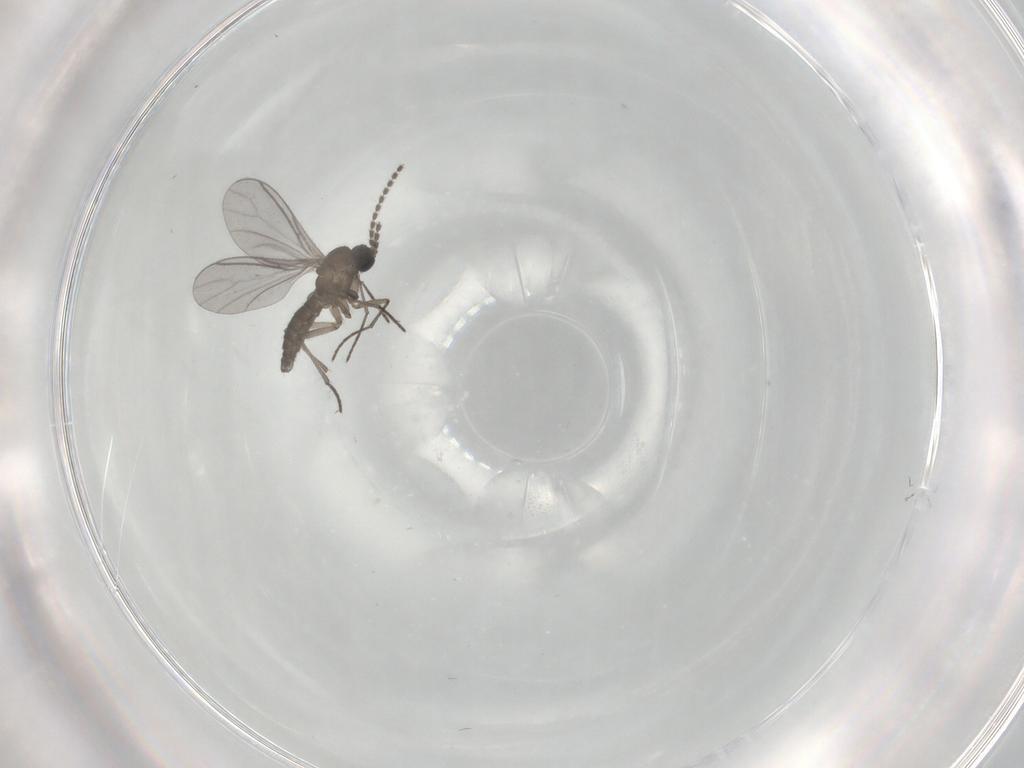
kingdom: Animalia
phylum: Arthropoda
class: Insecta
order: Diptera
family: Sciaridae
